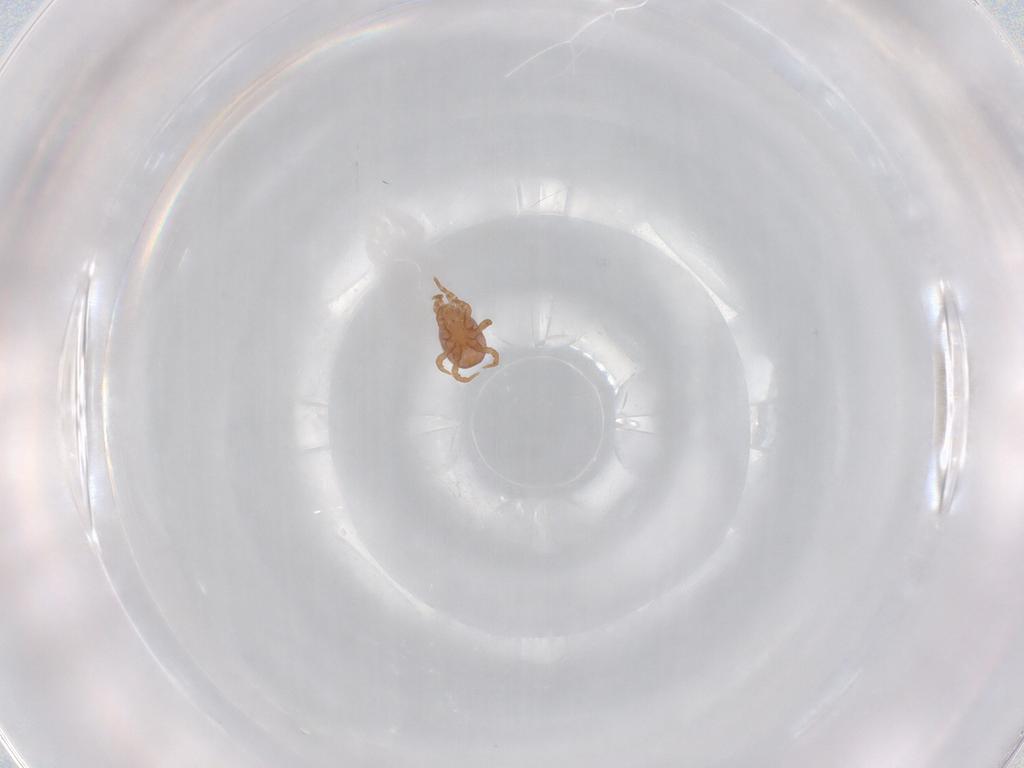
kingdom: Animalia
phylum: Arthropoda
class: Arachnida
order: Mesostigmata
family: Eviphididae
